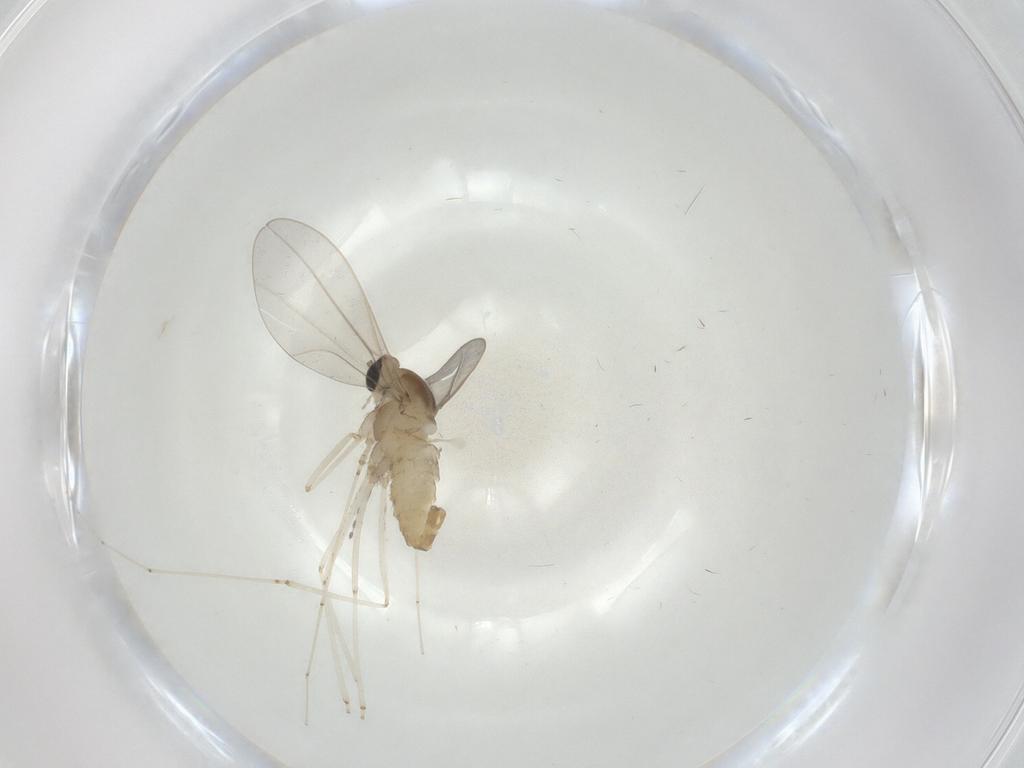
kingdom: Animalia
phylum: Arthropoda
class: Insecta
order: Diptera
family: Cecidomyiidae
